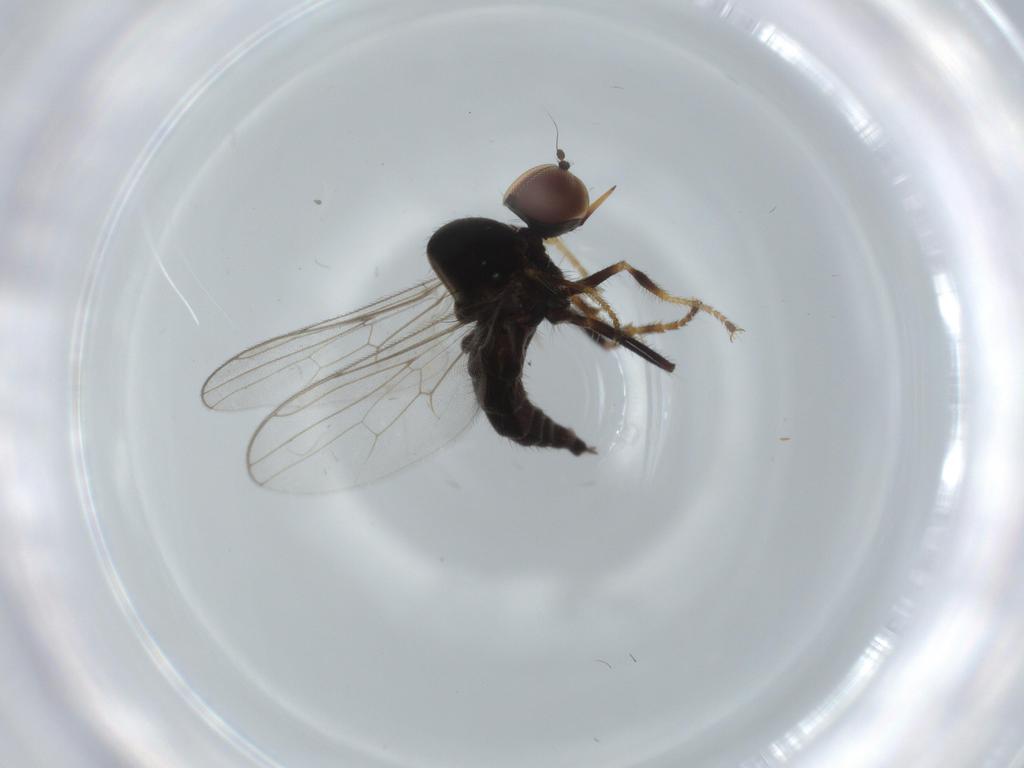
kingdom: Animalia
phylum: Arthropoda
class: Insecta
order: Diptera
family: Hybotidae
